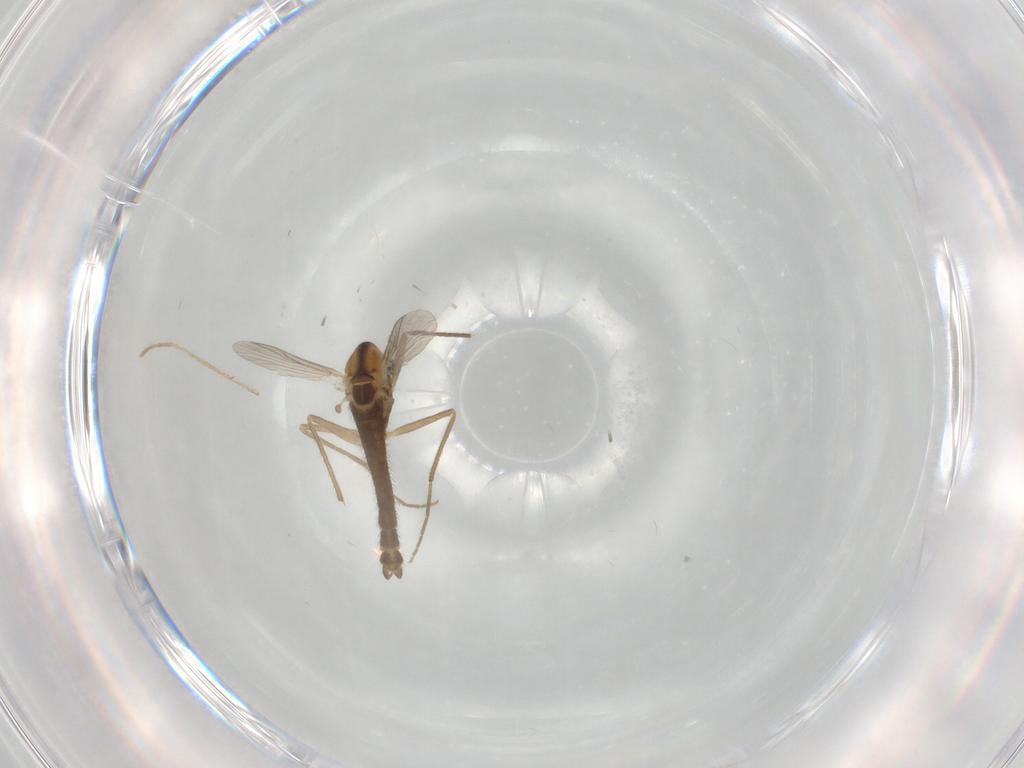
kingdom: Animalia
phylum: Arthropoda
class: Insecta
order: Diptera
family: Chironomidae
